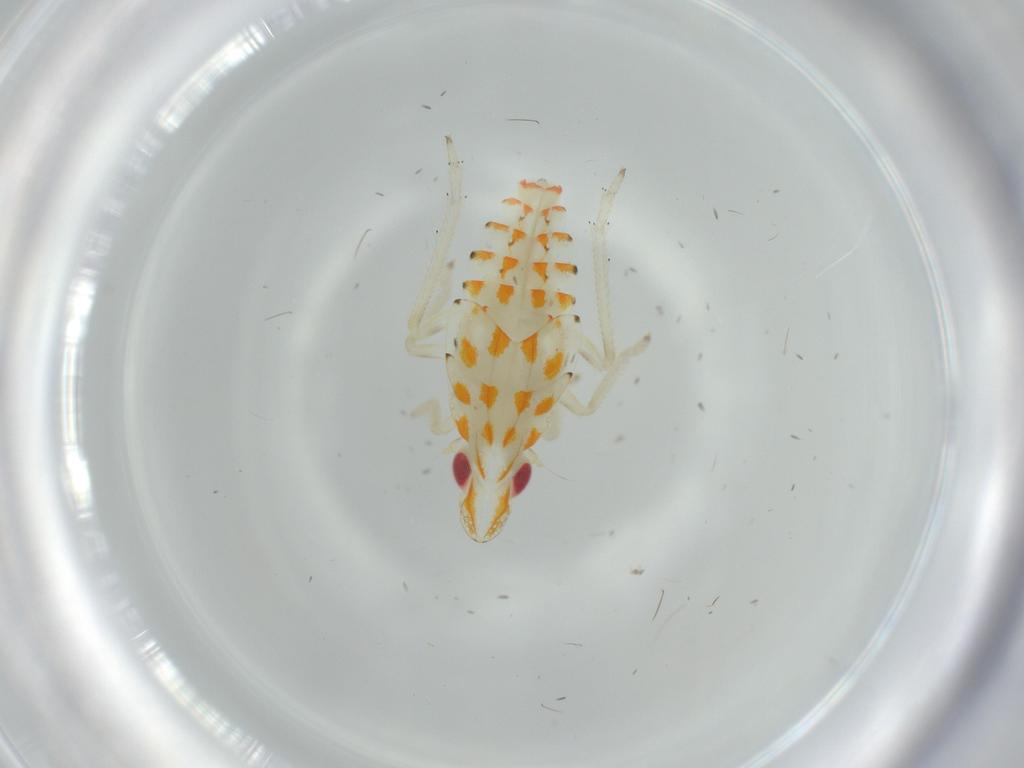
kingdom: Animalia
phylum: Arthropoda
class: Insecta
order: Hemiptera
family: Tropiduchidae
